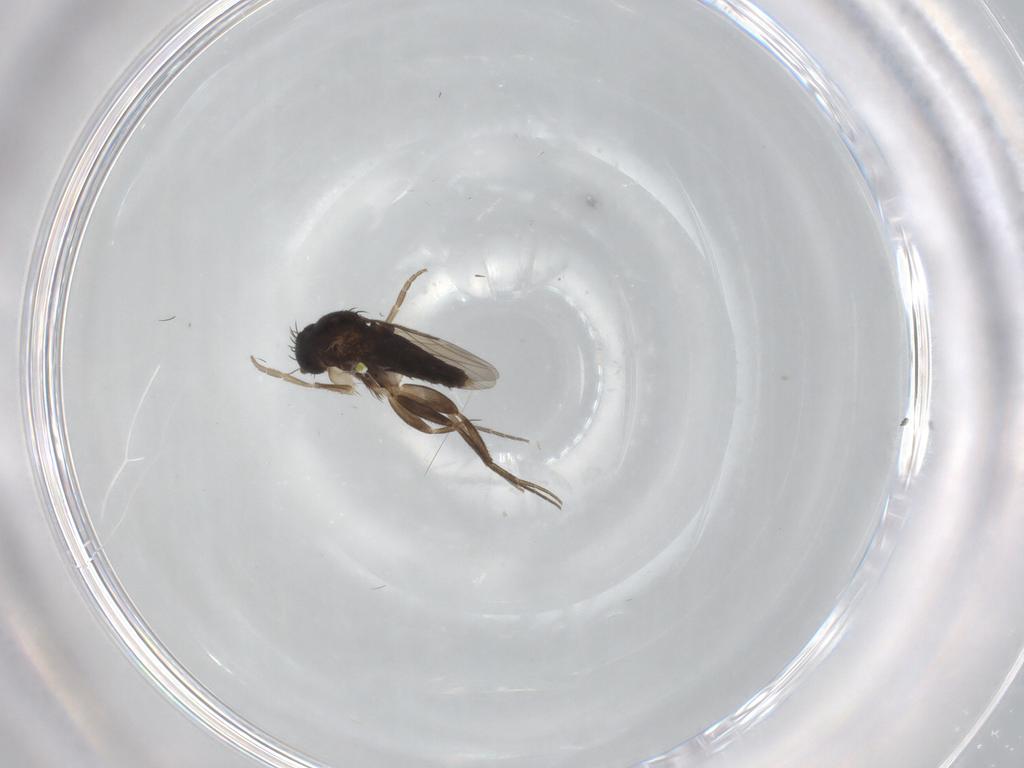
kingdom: Animalia
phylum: Arthropoda
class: Insecta
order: Diptera
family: Phoridae
